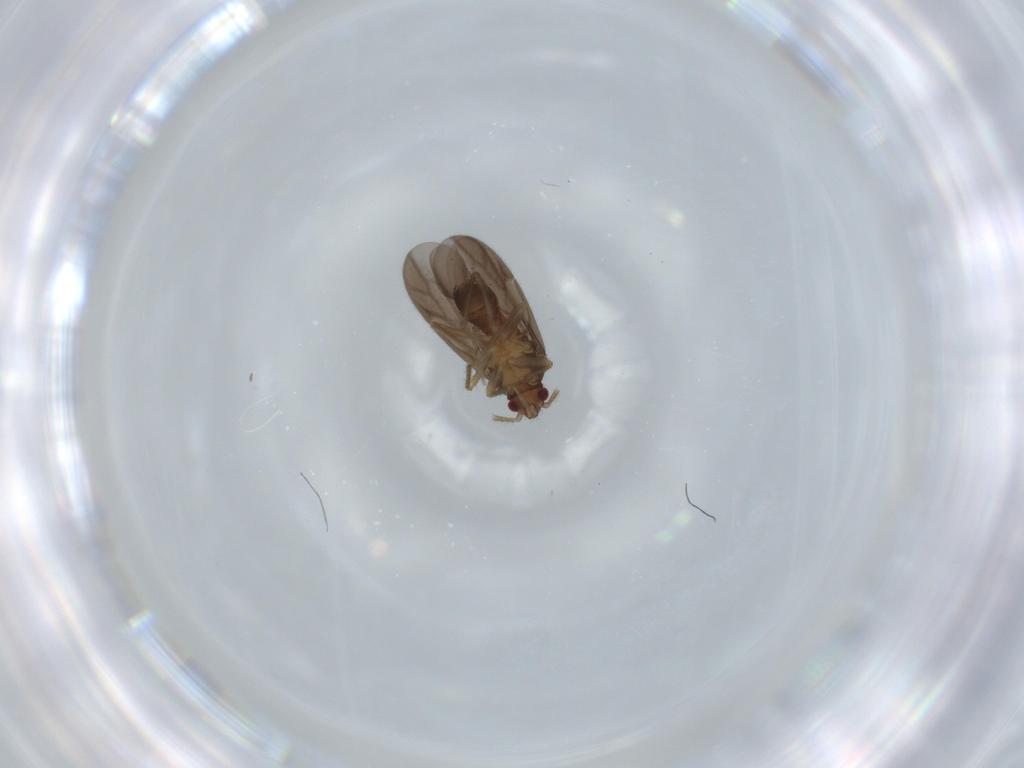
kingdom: Animalia
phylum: Arthropoda
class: Insecta
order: Hemiptera
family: Ceratocombidae
